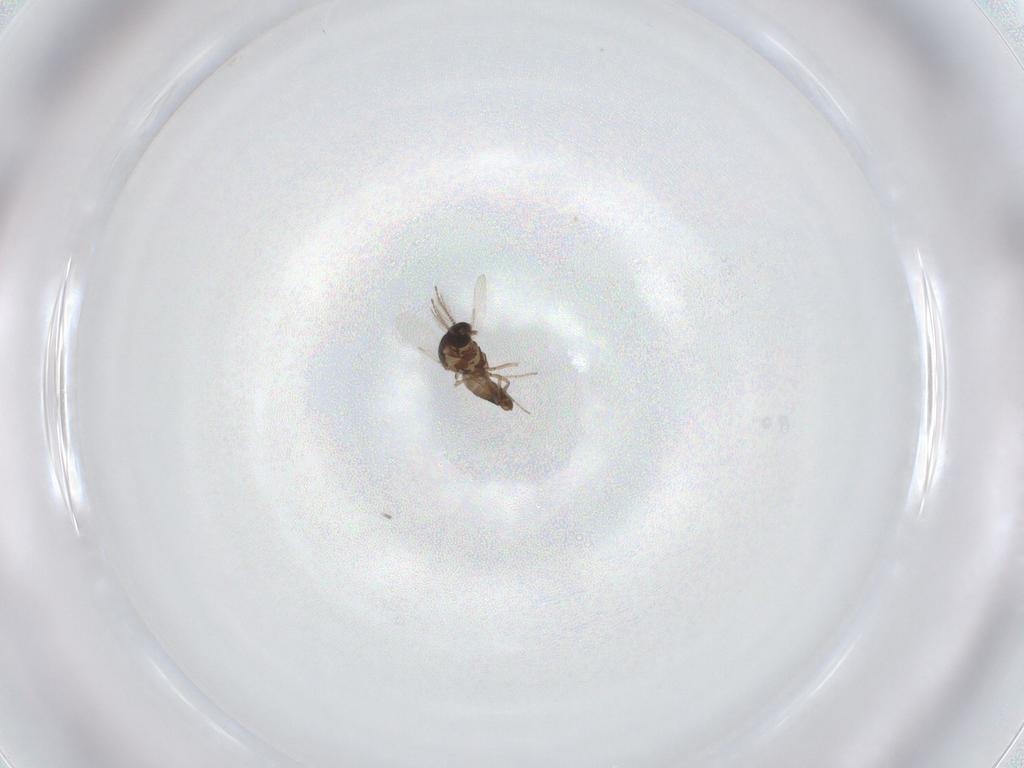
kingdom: Animalia
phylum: Arthropoda
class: Insecta
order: Diptera
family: Ceratopogonidae
